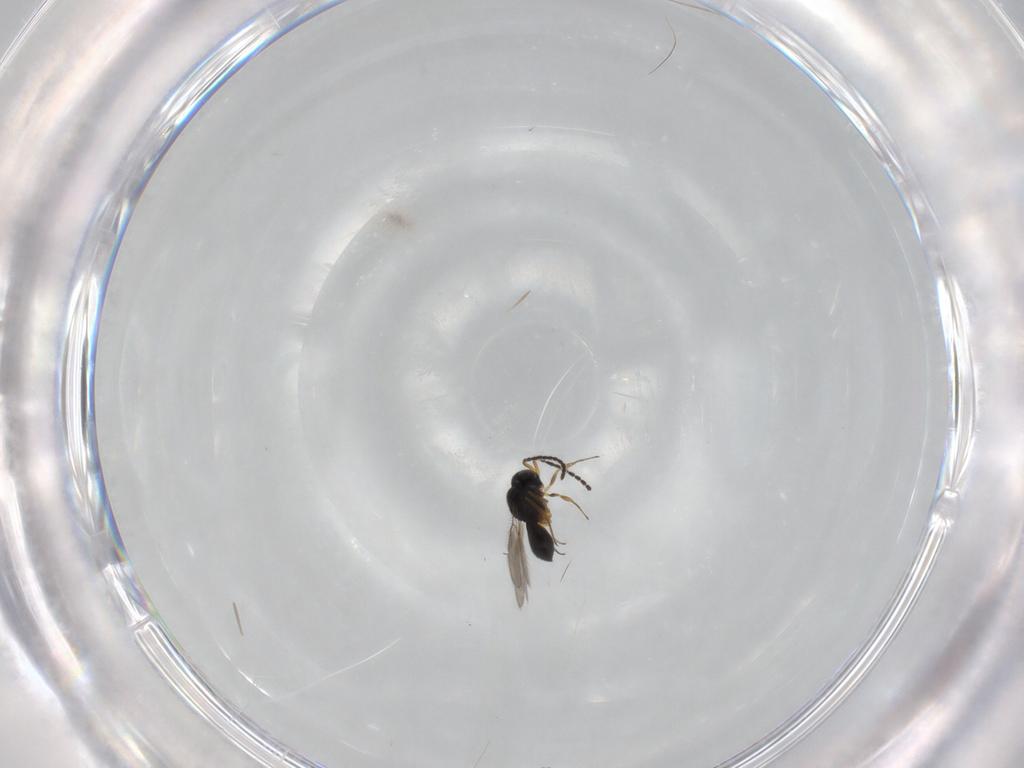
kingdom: Animalia
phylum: Arthropoda
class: Insecta
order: Hymenoptera
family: Scelionidae
